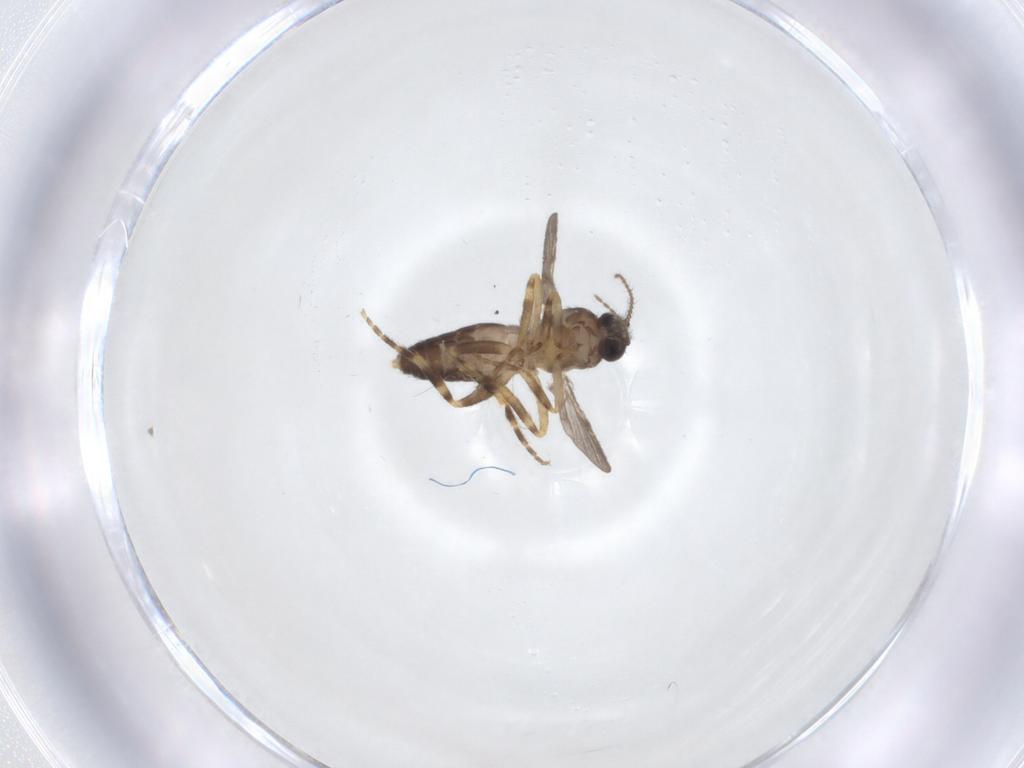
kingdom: Animalia
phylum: Arthropoda
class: Insecta
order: Diptera
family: Ceratopogonidae
